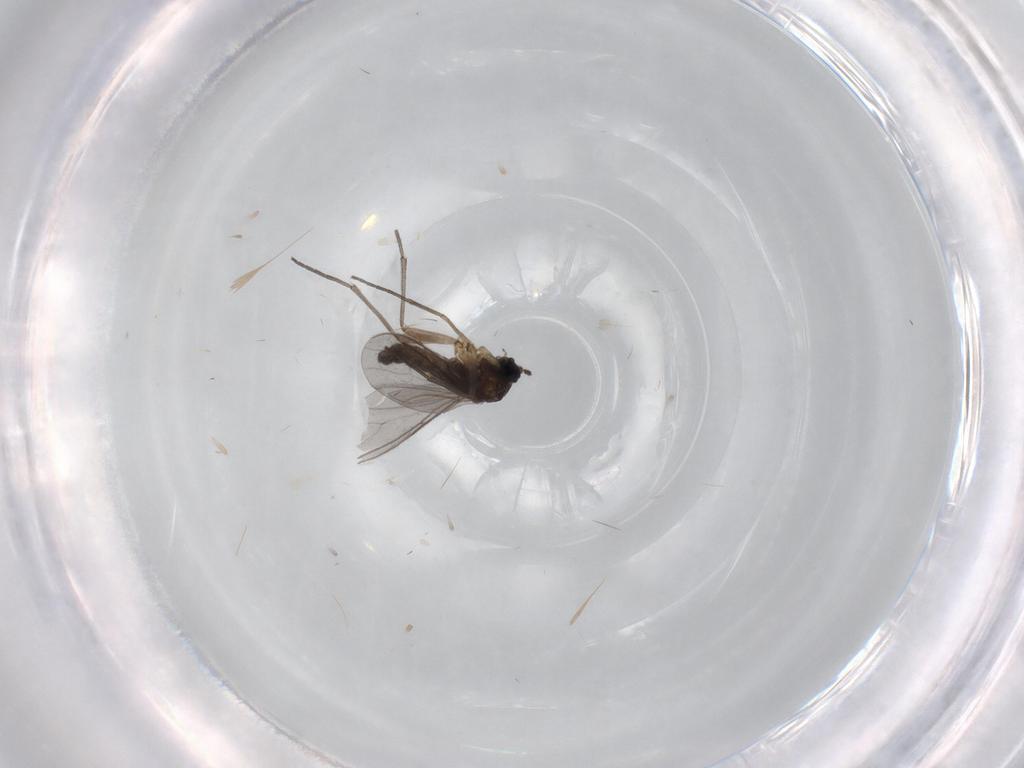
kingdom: Animalia
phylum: Arthropoda
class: Insecta
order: Diptera
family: Sciaridae
